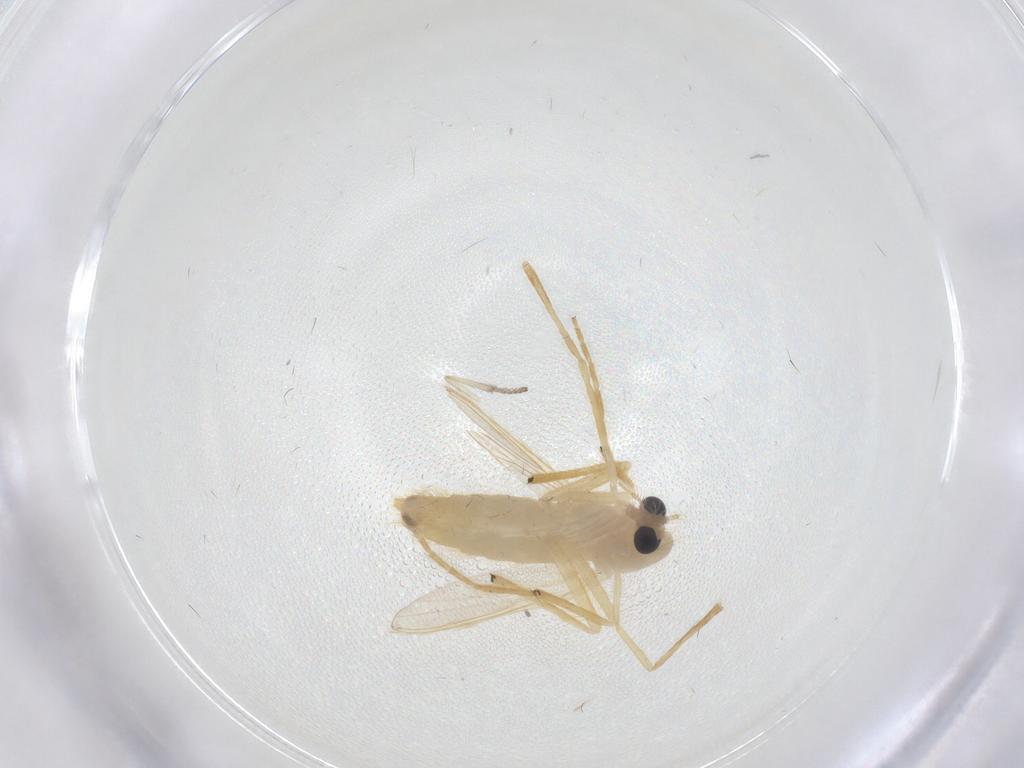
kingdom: Animalia
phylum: Arthropoda
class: Insecta
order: Diptera
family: Chironomidae
